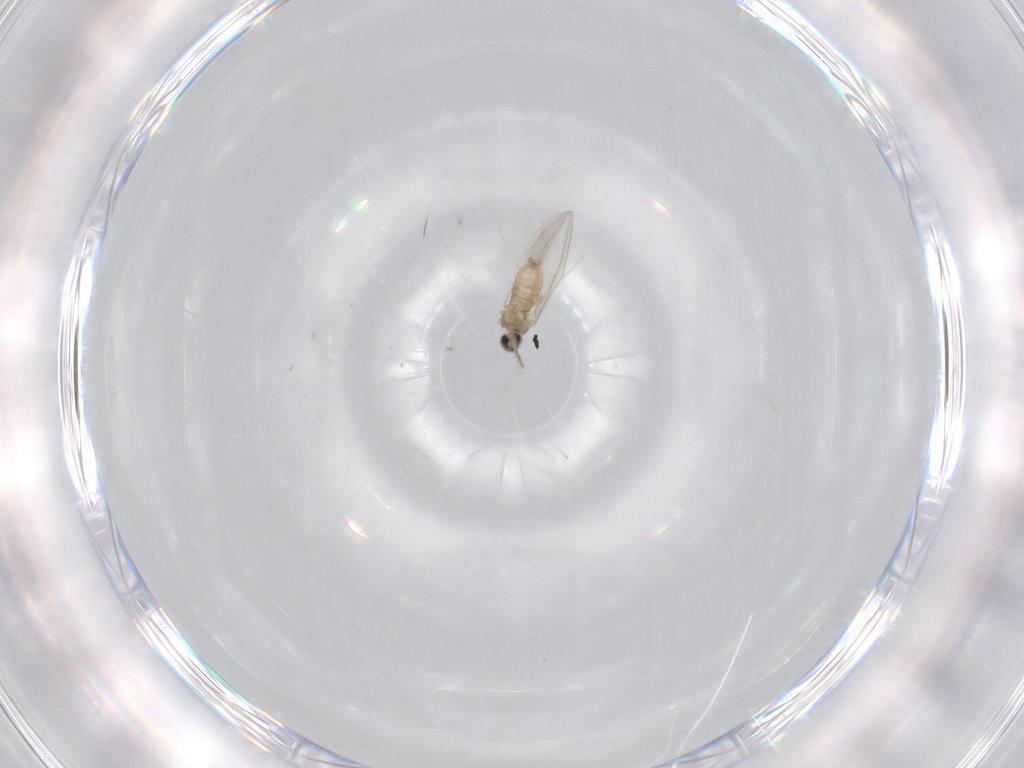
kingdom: Animalia
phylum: Arthropoda
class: Insecta
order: Diptera
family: Cecidomyiidae
